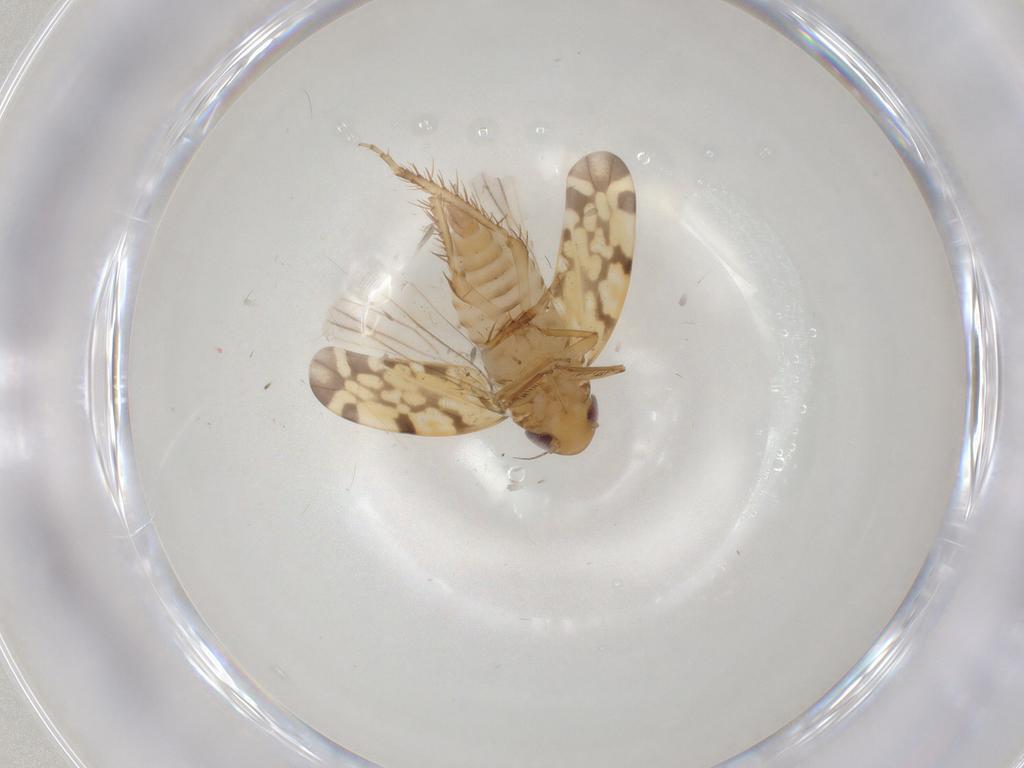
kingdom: Animalia
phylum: Arthropoda
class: Insecta
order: Hemiptera
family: Cicadellidae
